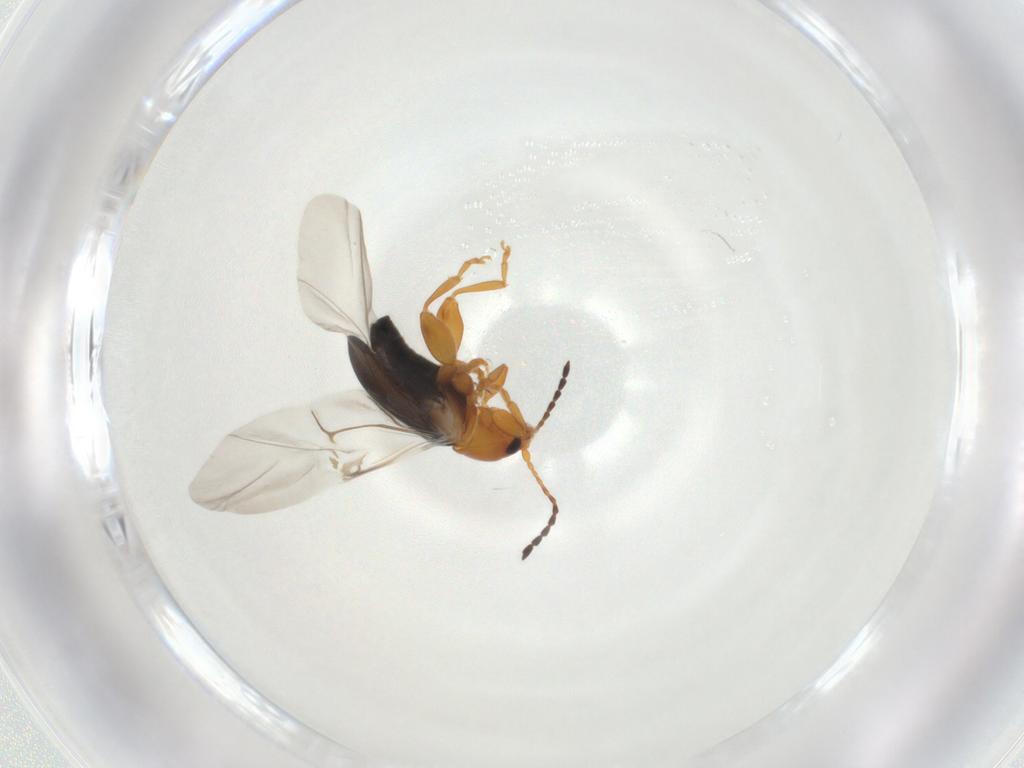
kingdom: Animalia
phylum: Arthropoda
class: Insecta
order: Coleoptera
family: Chrysomelidae
